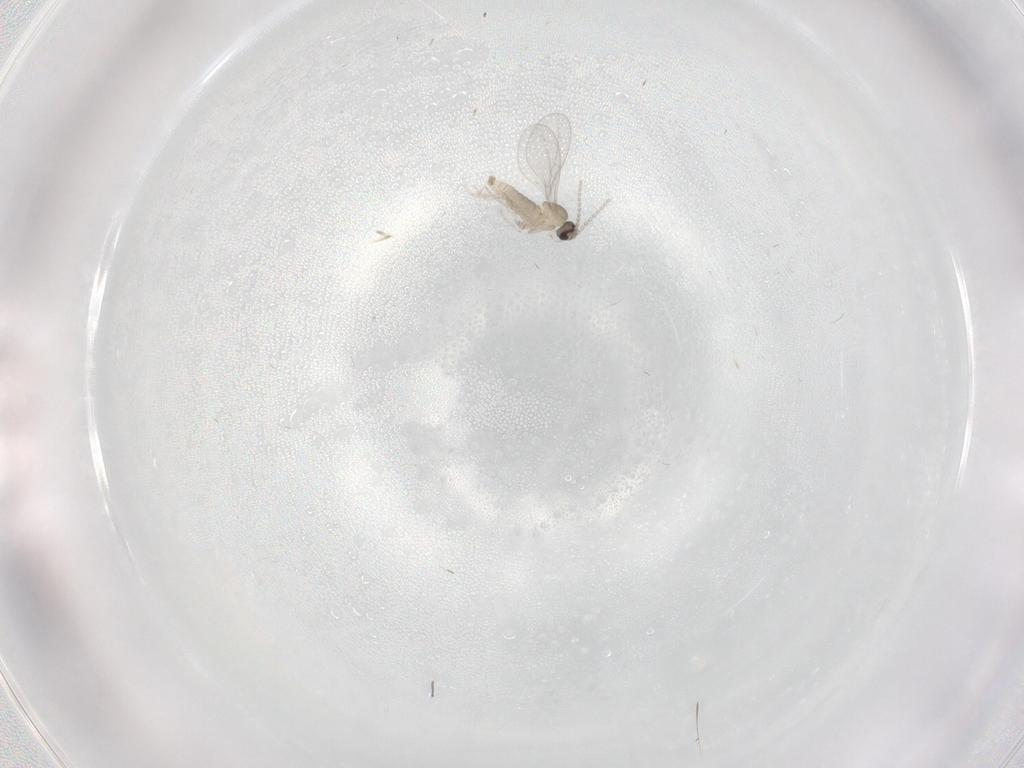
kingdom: Animalia
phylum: Arthropoda
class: Insecta
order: Diptera
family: Cecidomyiidae
